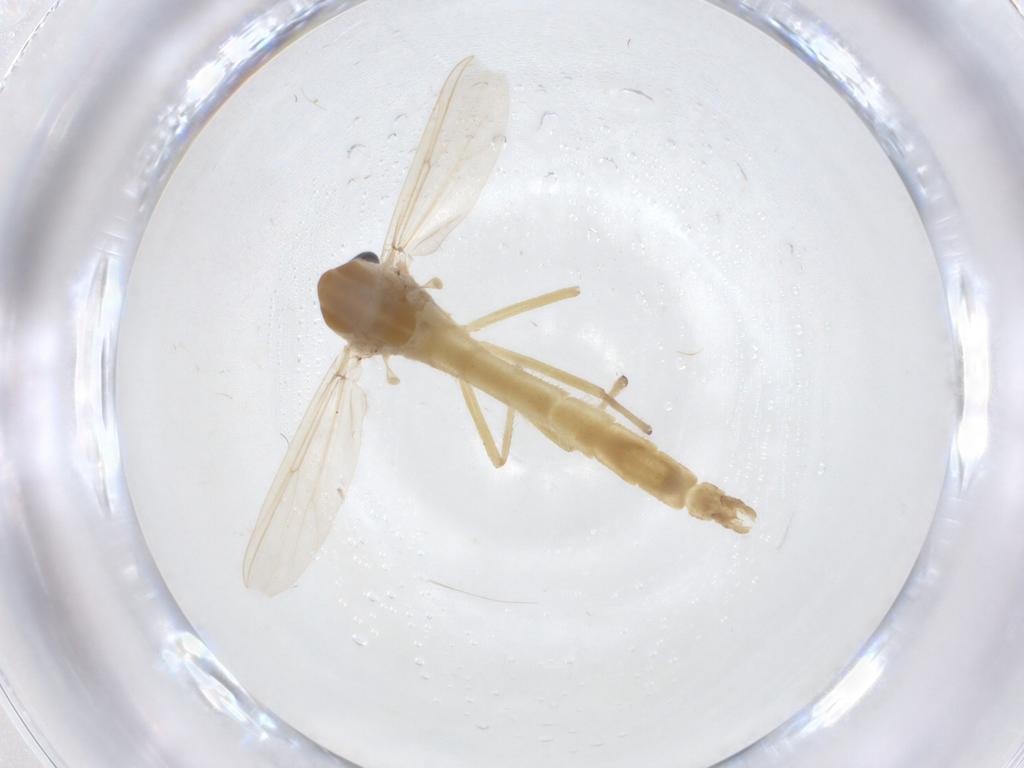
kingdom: Animalia
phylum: Arthropoda
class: Insecta
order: Diptera
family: Chironomidae
